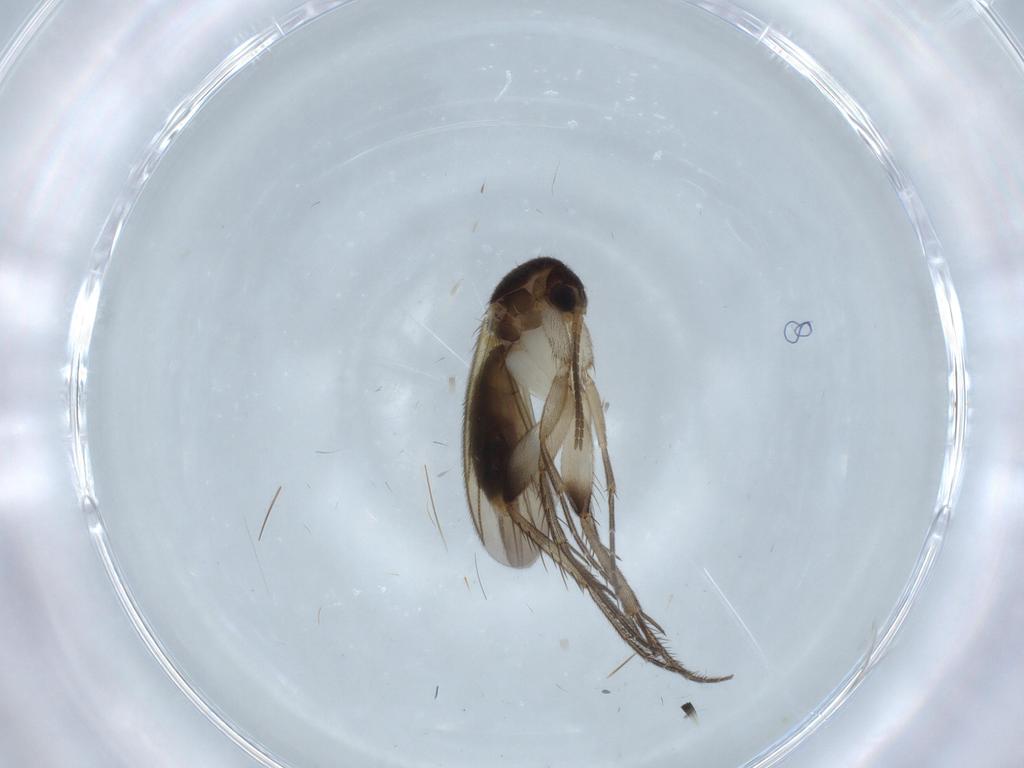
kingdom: Animalia
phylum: Arthropoda
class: Insecta
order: Diptera
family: Mycetophilidae
